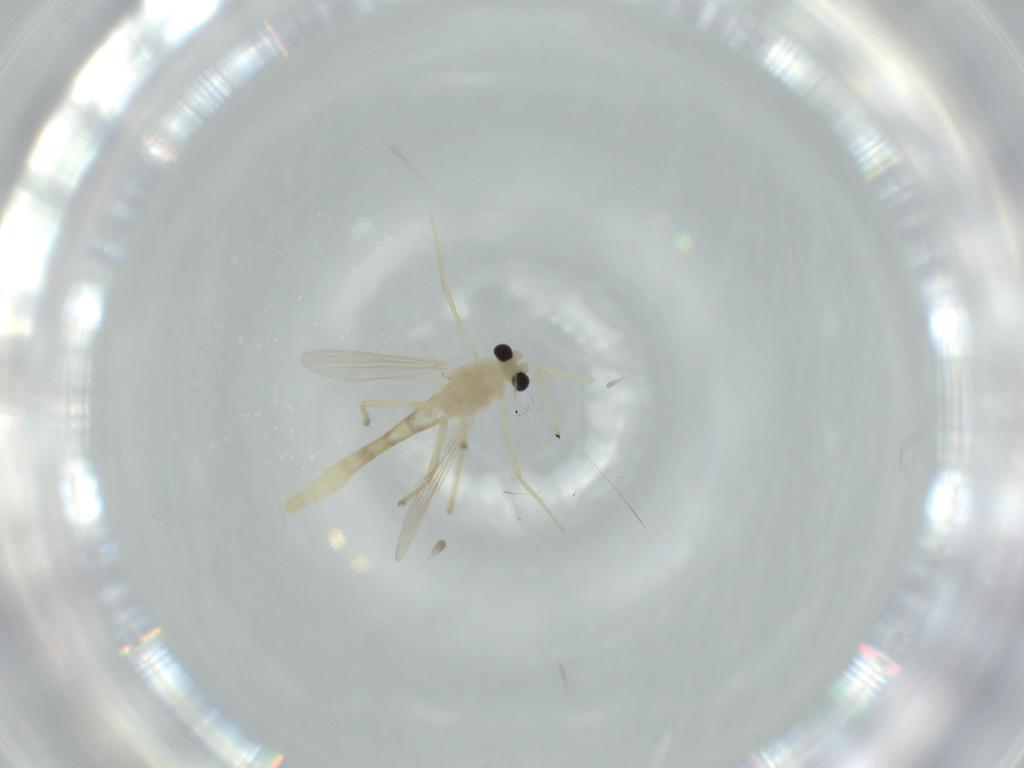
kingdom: Animalia
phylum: Arthropoda
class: Insecta
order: Diptera
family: Chironomidae
